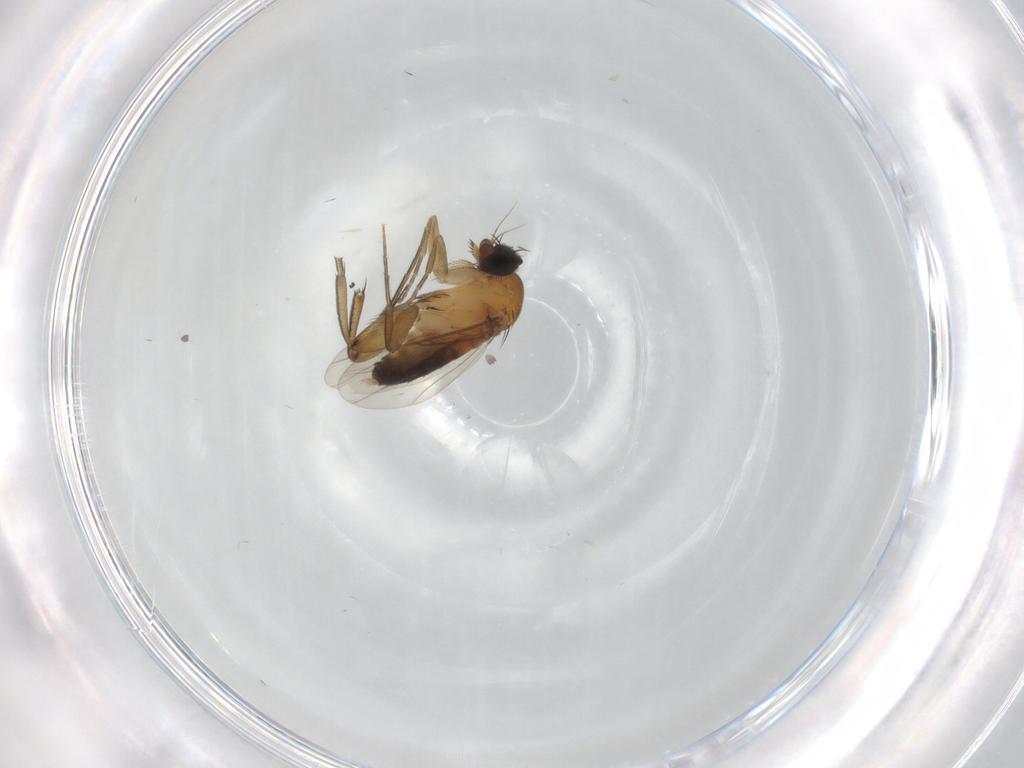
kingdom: Animalia
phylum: Arthropoda
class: Insecta
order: Diptera
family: Phoridae
